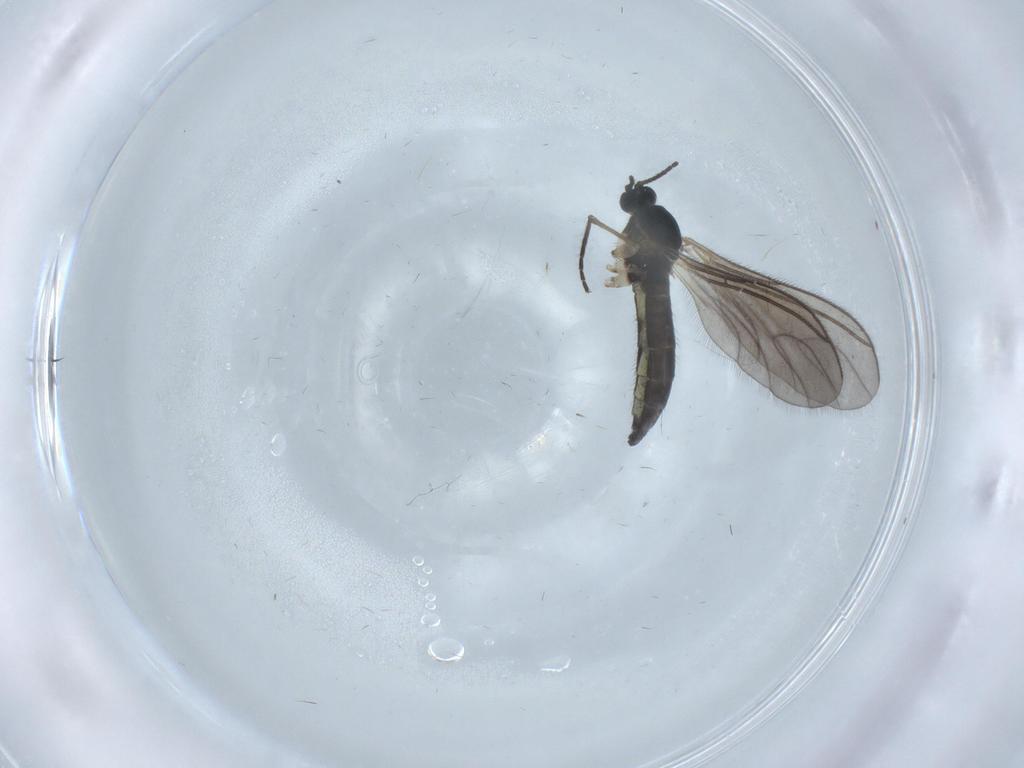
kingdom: Animalia
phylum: Arthropoda
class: Insecta
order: Diptera
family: Sciaridae
